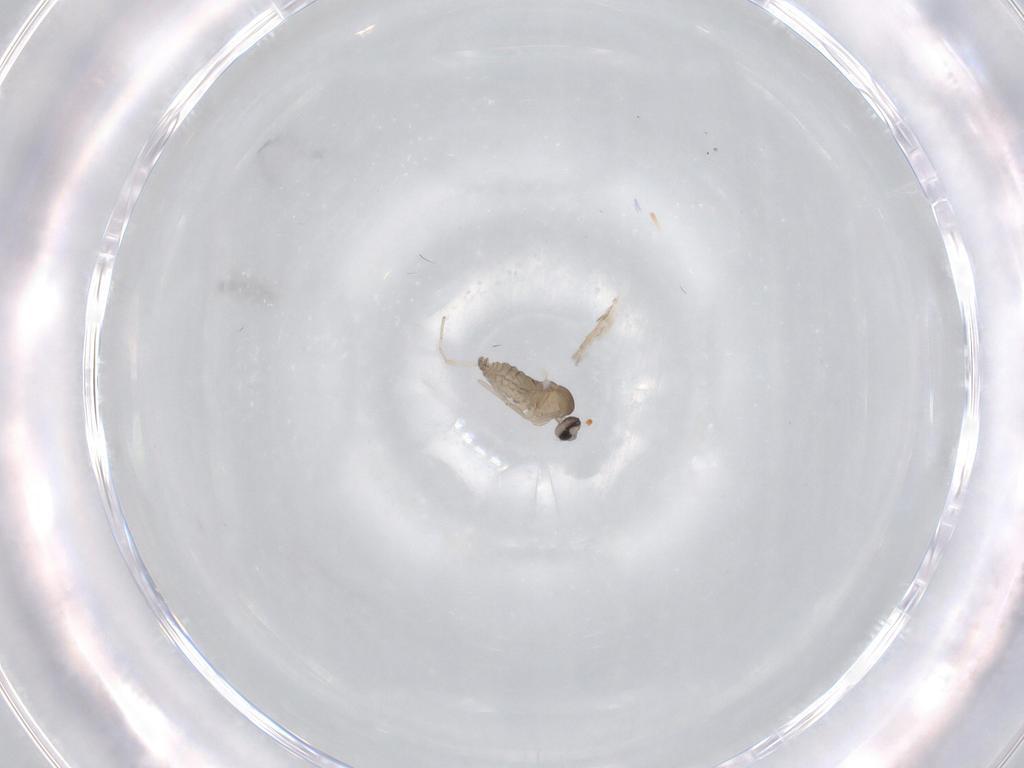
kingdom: Animalia
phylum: Arthropoda
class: Insecta
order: Diptera
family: Cecidomyiidae
